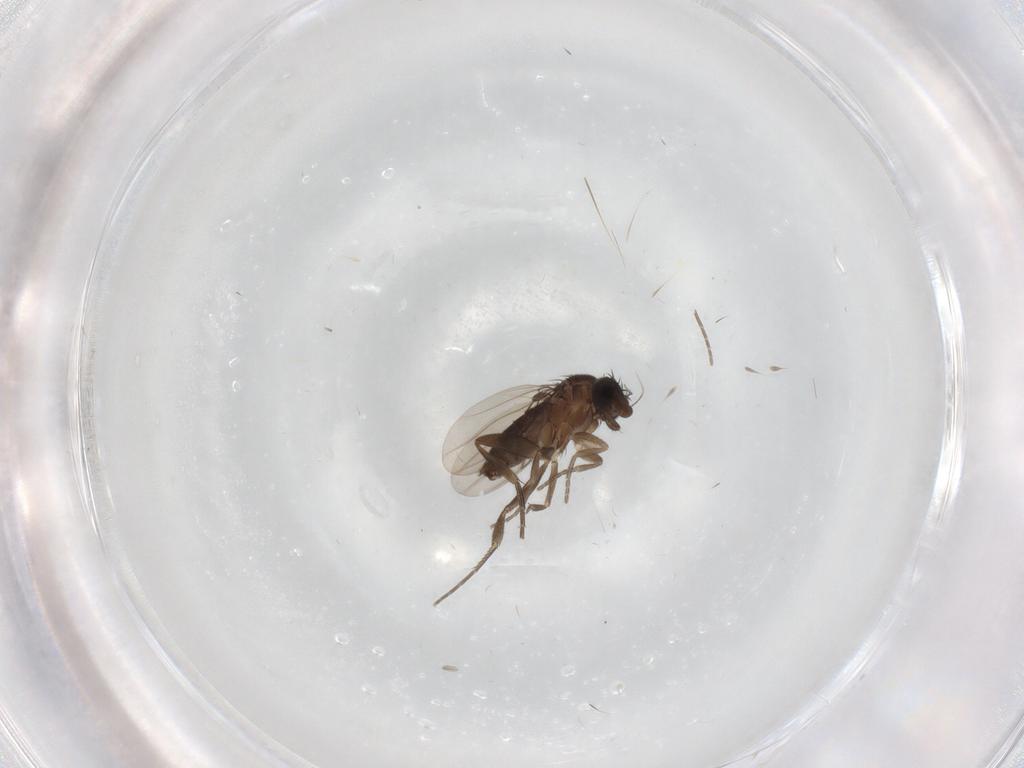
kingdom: Animalia
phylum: Arthropoda
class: Insecta
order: Diptera
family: Phoridae
